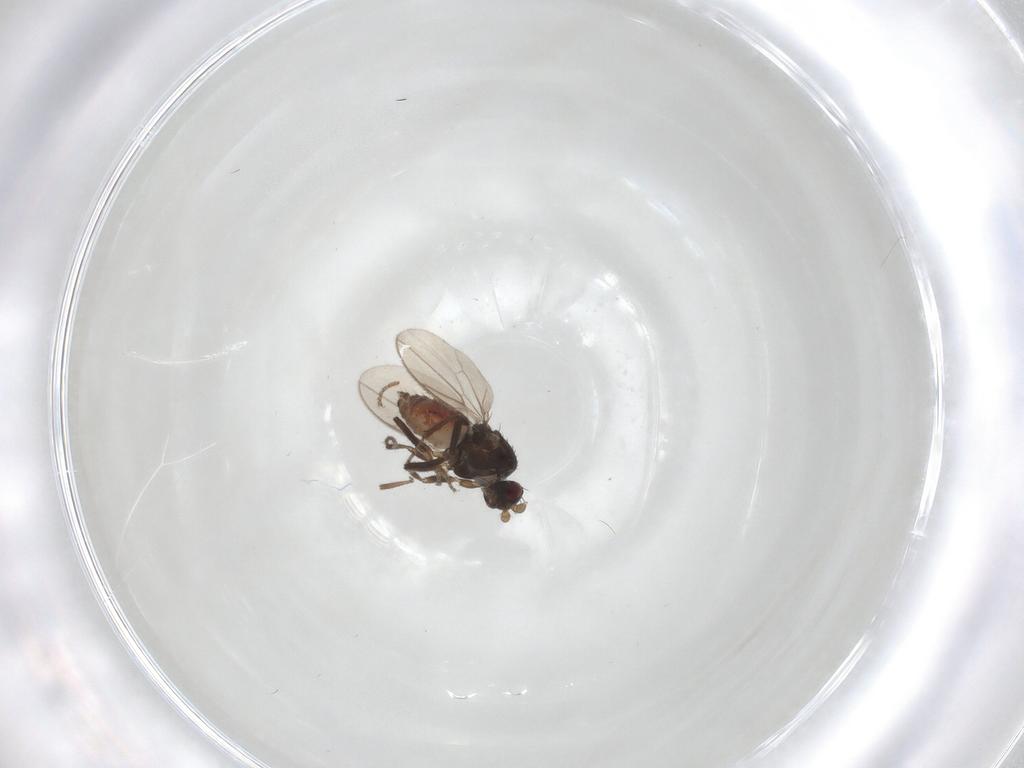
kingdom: Animalia
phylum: Arthropoda
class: Insecta
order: Diptera
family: Sphaeroceridae
